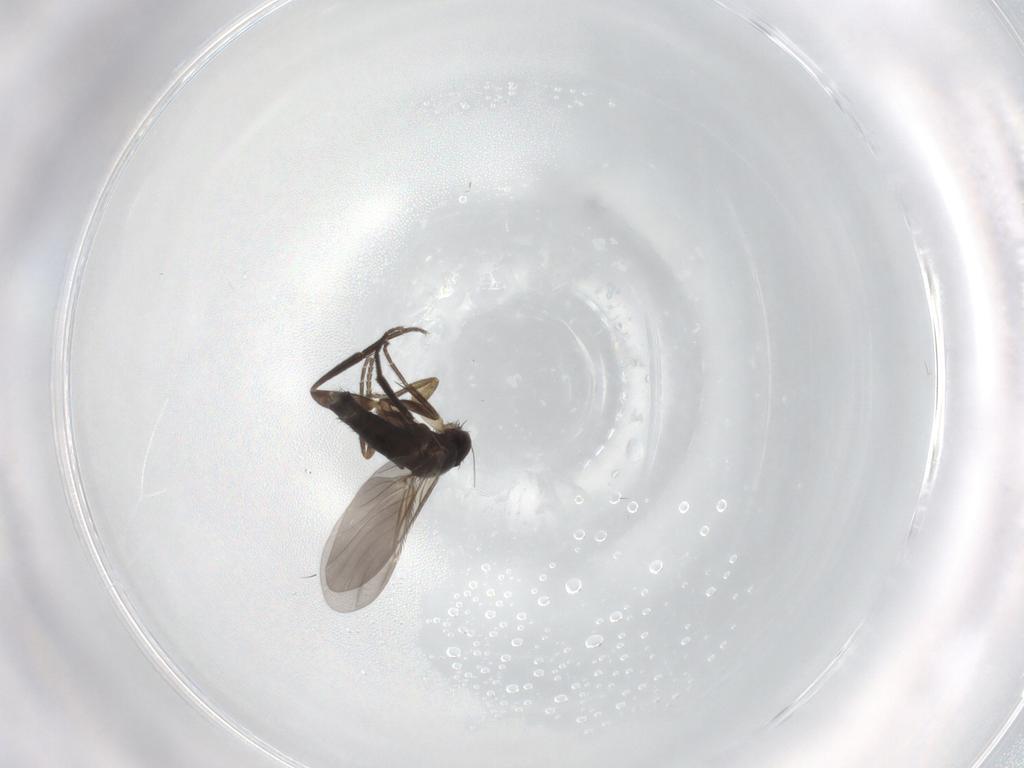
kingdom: Animalia
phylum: Arthropoda
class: Insecta
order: Diptera
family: Phoridae
